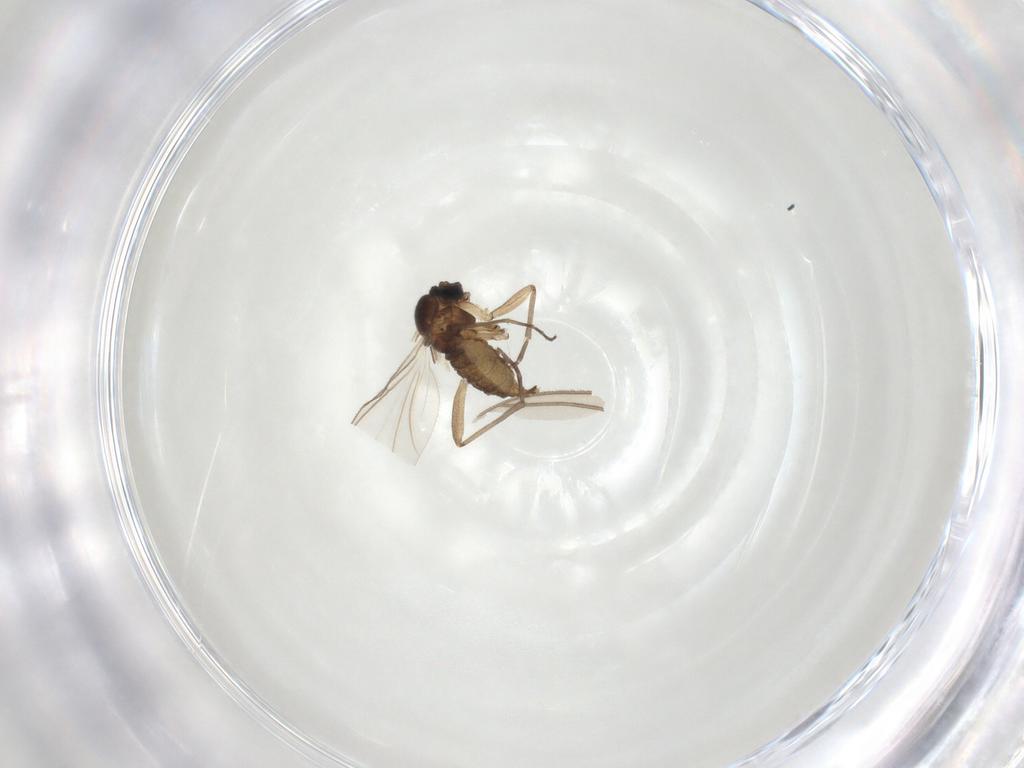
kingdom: Animalia
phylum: Arthropoda
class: Insecta
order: Diptera
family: Sciaridae
